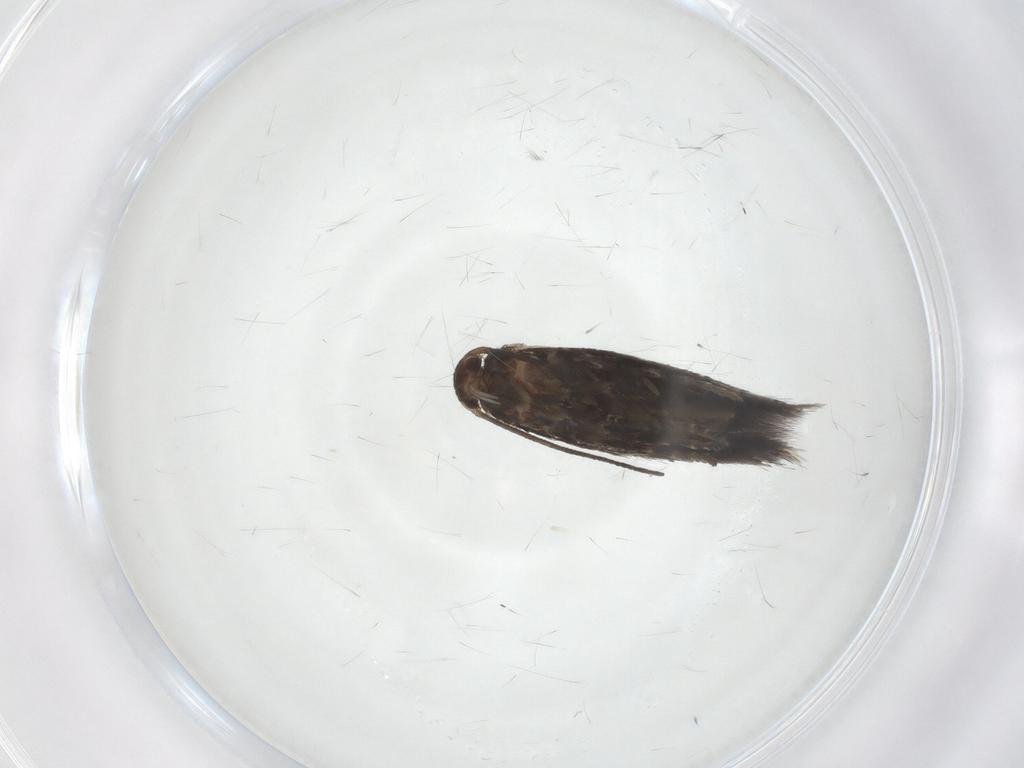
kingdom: Animalia
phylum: Arthropoda
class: Insecta
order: Lepidoptera
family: Elachistidae
